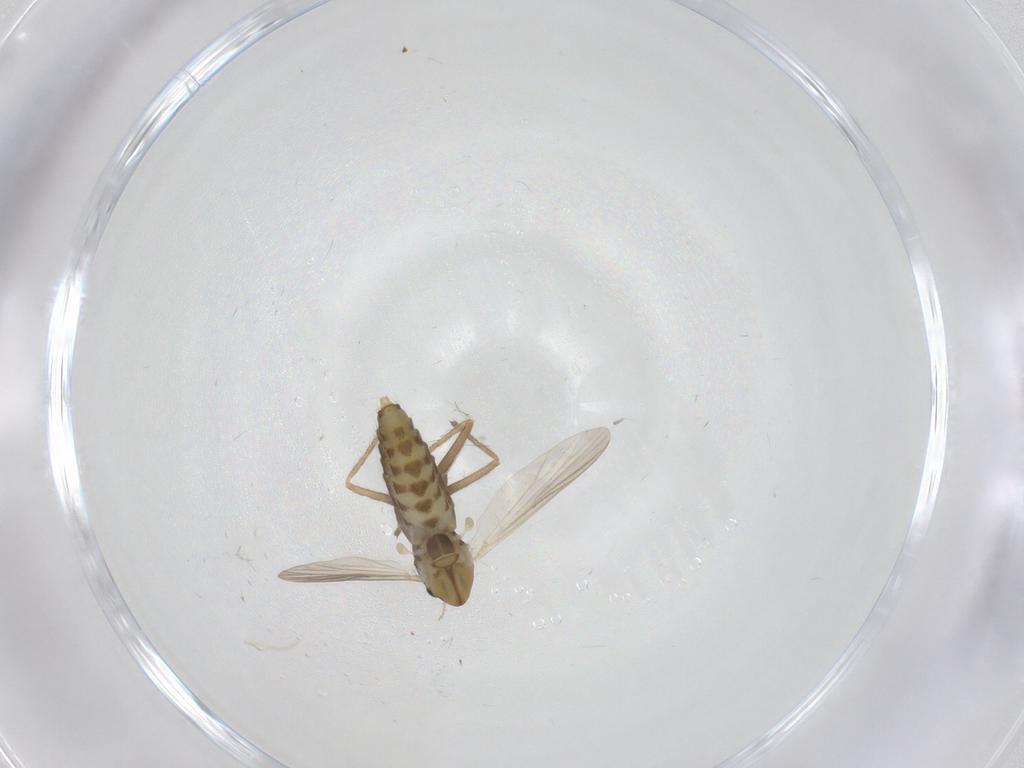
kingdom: Animalia
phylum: Arthropoda
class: Insecta
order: Diptera
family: Chironomidae
